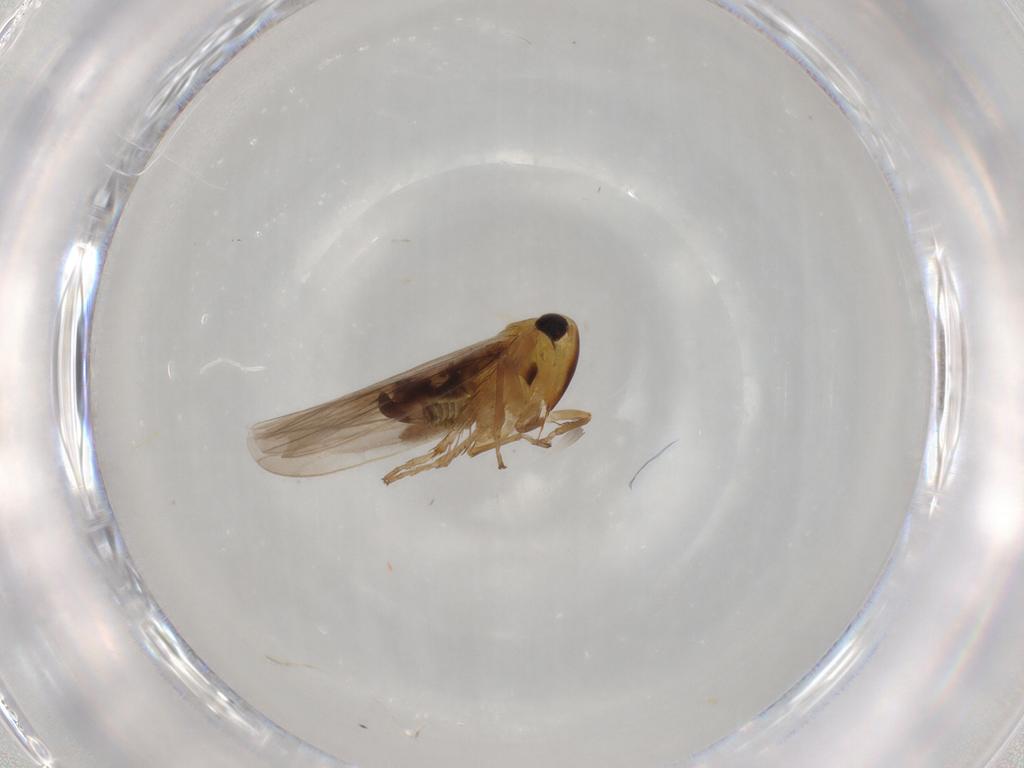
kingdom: Animalia
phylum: Arthropoda
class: Insecta
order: Hemiptera
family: Cicadellidae
